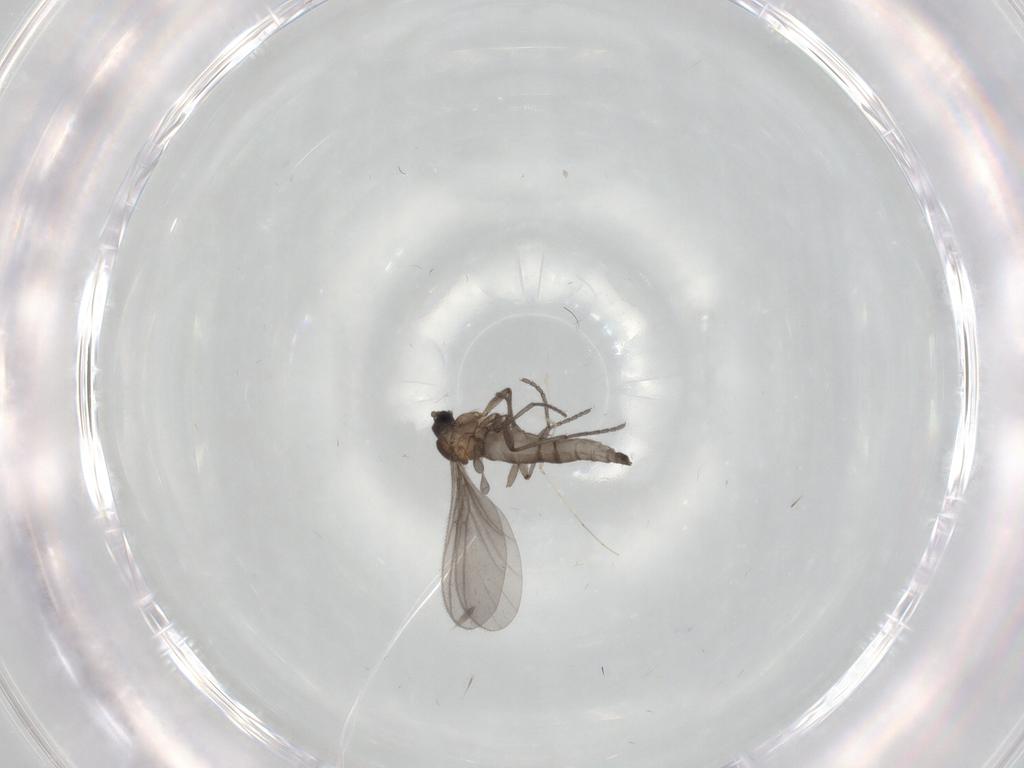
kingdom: Animalia
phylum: Arthropoda
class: Insecta
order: Diptera
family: Sciaridae
